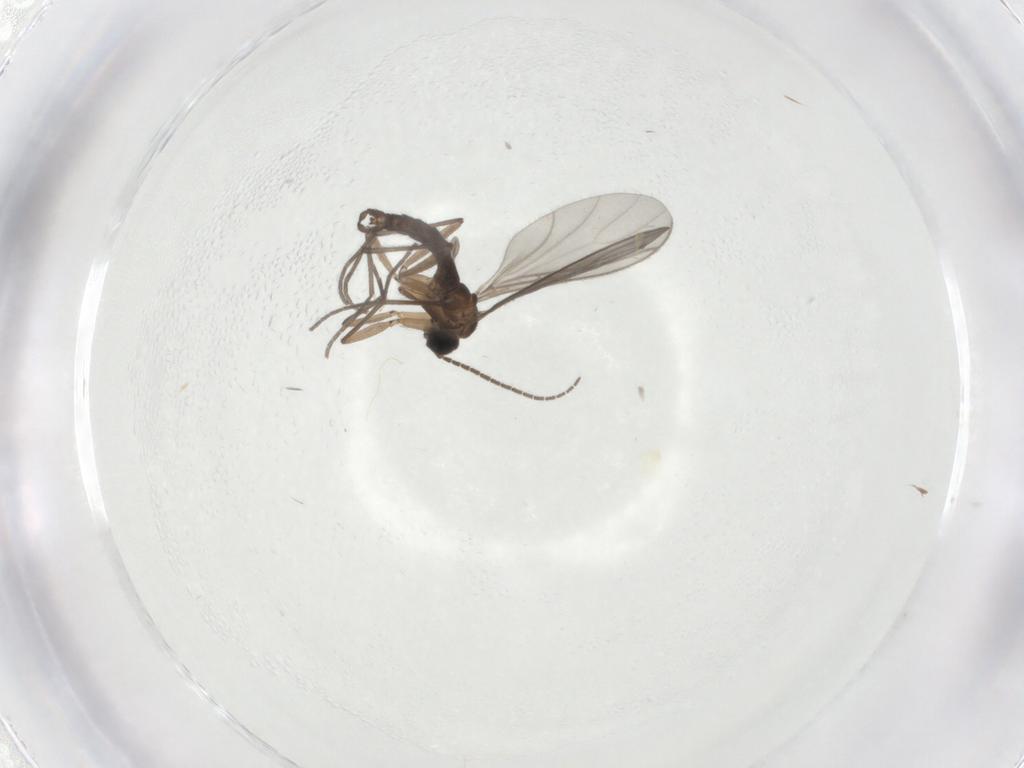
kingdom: Animalia
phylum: Arthropoda
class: Insecta
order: Diptera
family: Sciaridae
